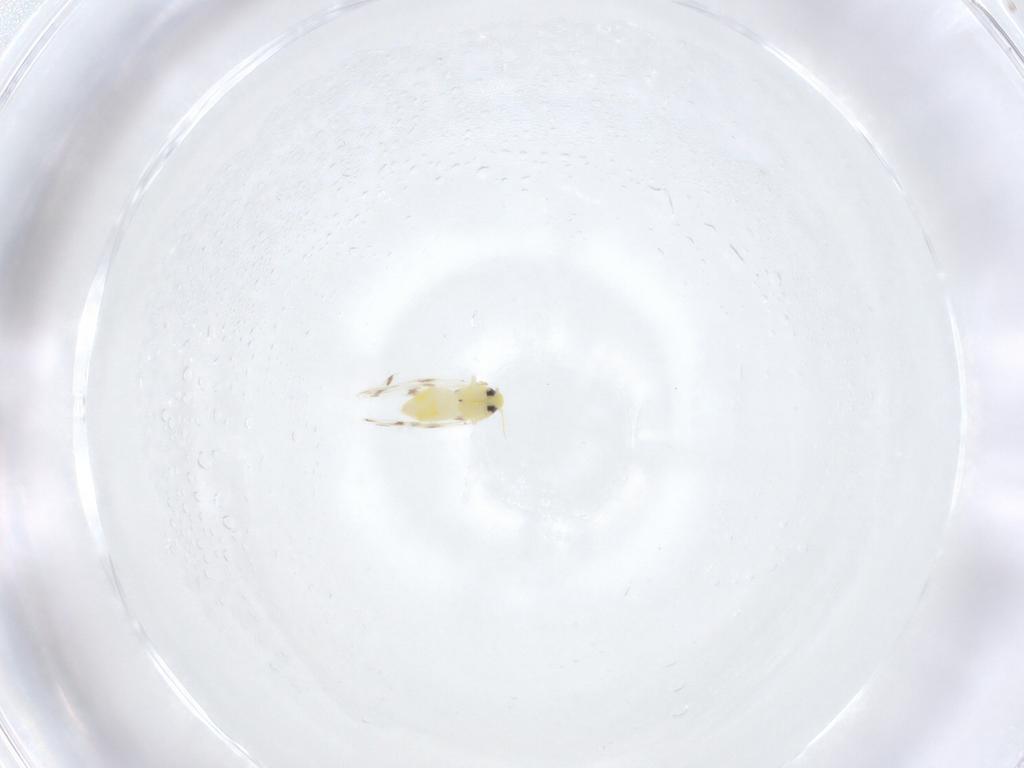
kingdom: Animalia
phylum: Arthropoda
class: Insecta
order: Hemiptera
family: Aleyrodidae
